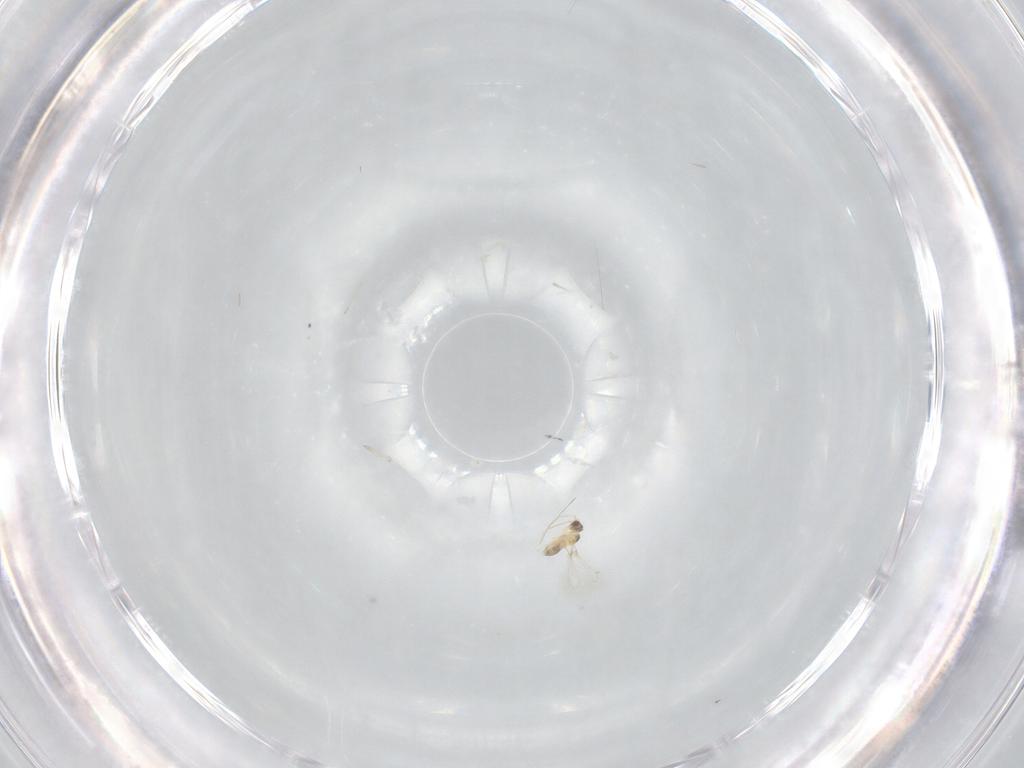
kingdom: Animalia
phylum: Arthropoda
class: Insecta
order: Hymenoptera
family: Mymaridae
